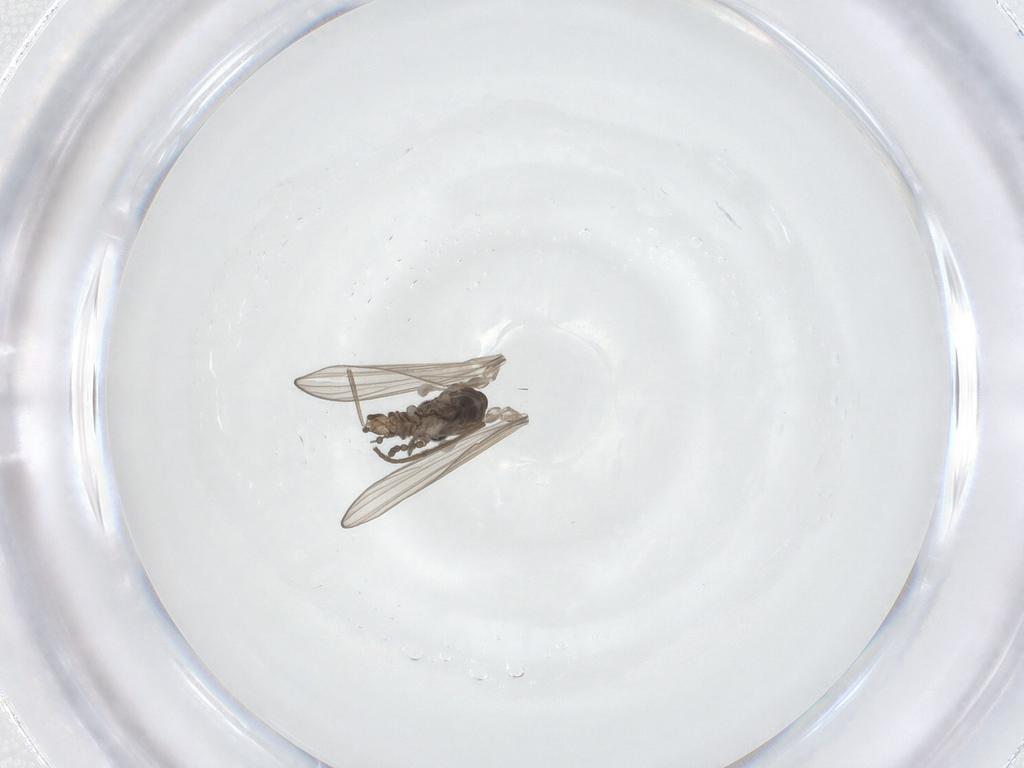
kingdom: Animalia
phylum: Arthropoda
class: Insecta
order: Diptera
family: Psychodidae
